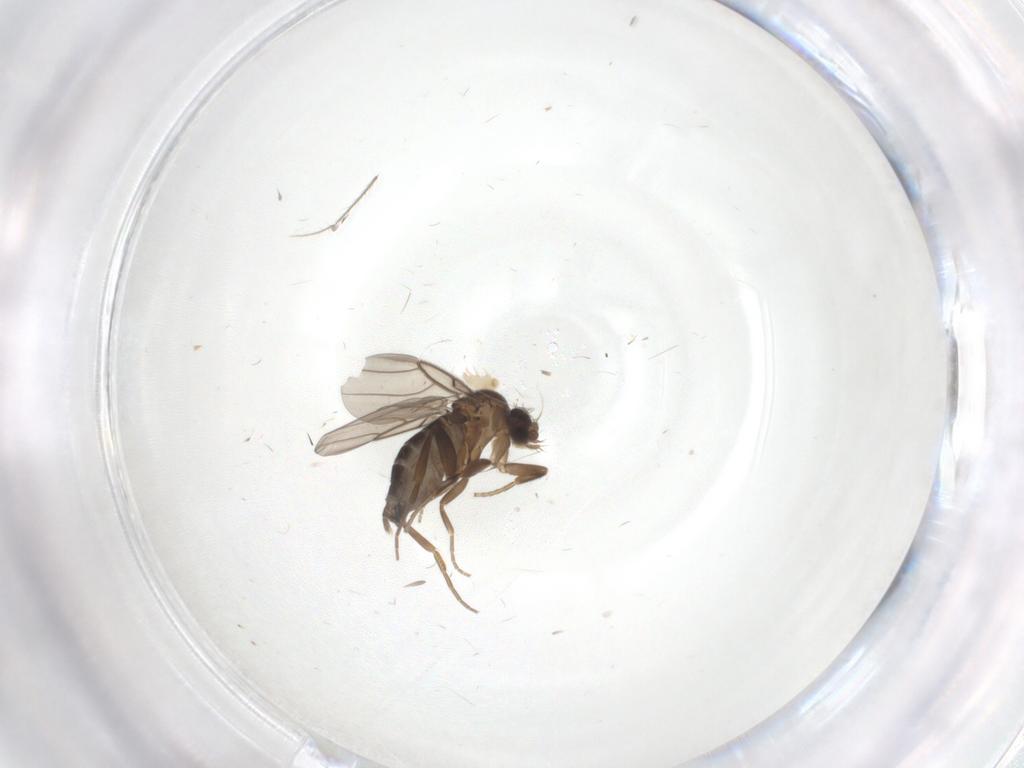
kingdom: Animalia
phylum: Arthropoda
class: Insecta
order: Diptera
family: Phoridae
